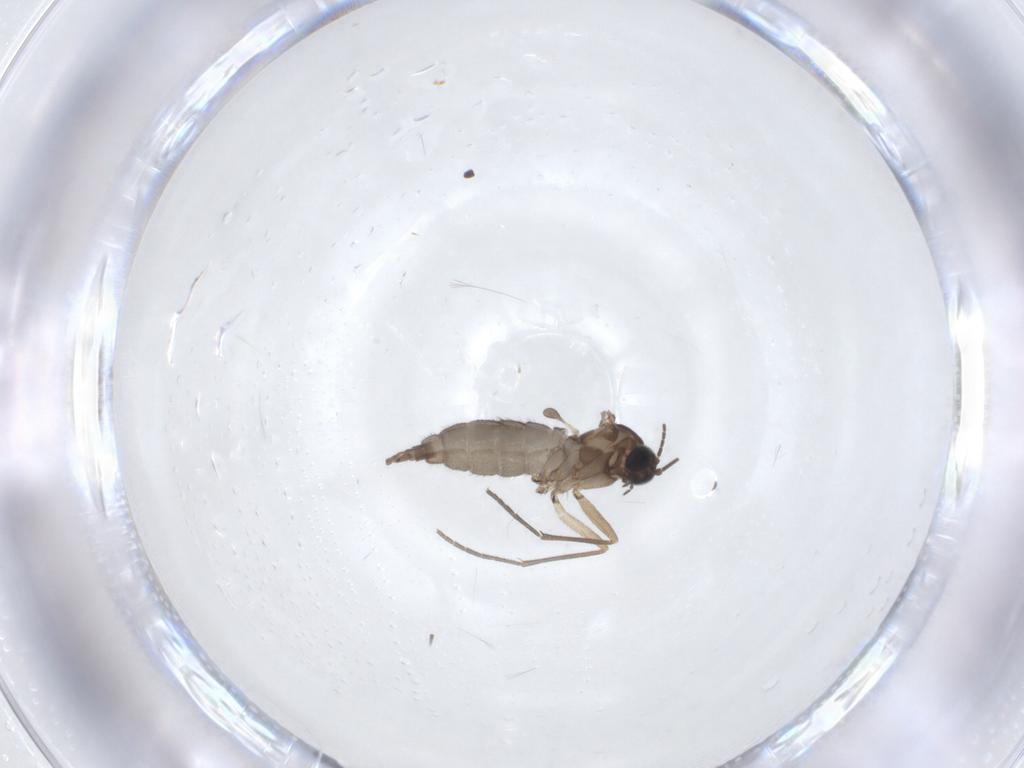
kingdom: Animalia
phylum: Arthropoda
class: Insecta
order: Diptera
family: Sciaridae
